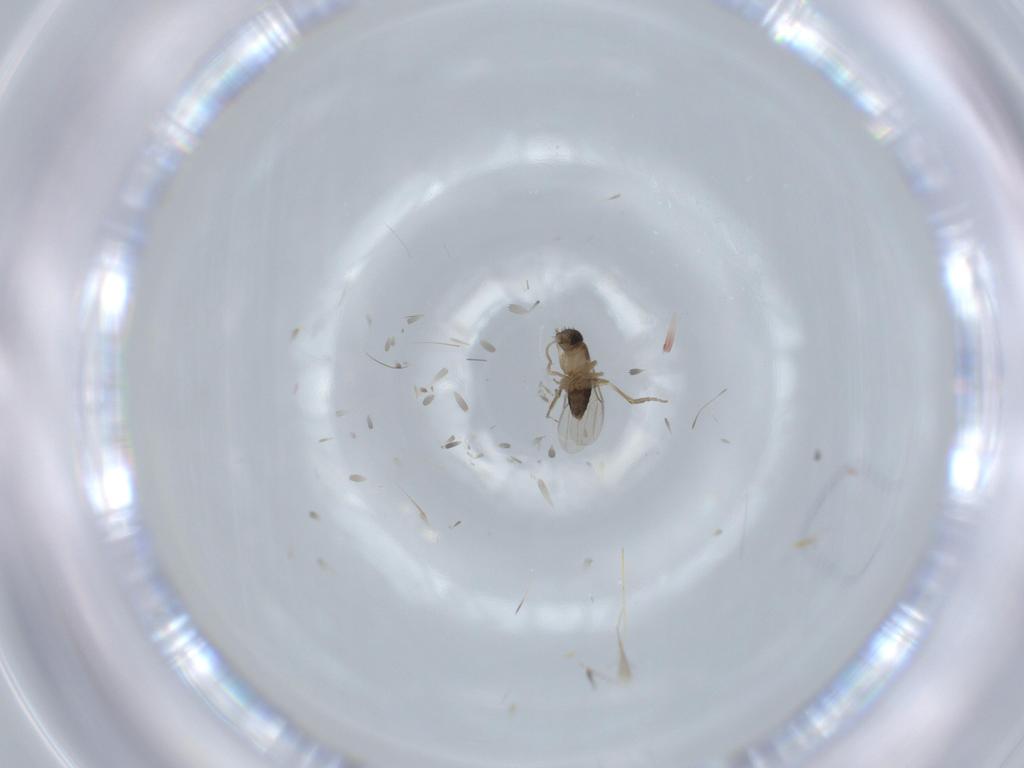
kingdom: Animalia
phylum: Arthropoda
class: Insecta
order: Diptera
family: Phoridae
